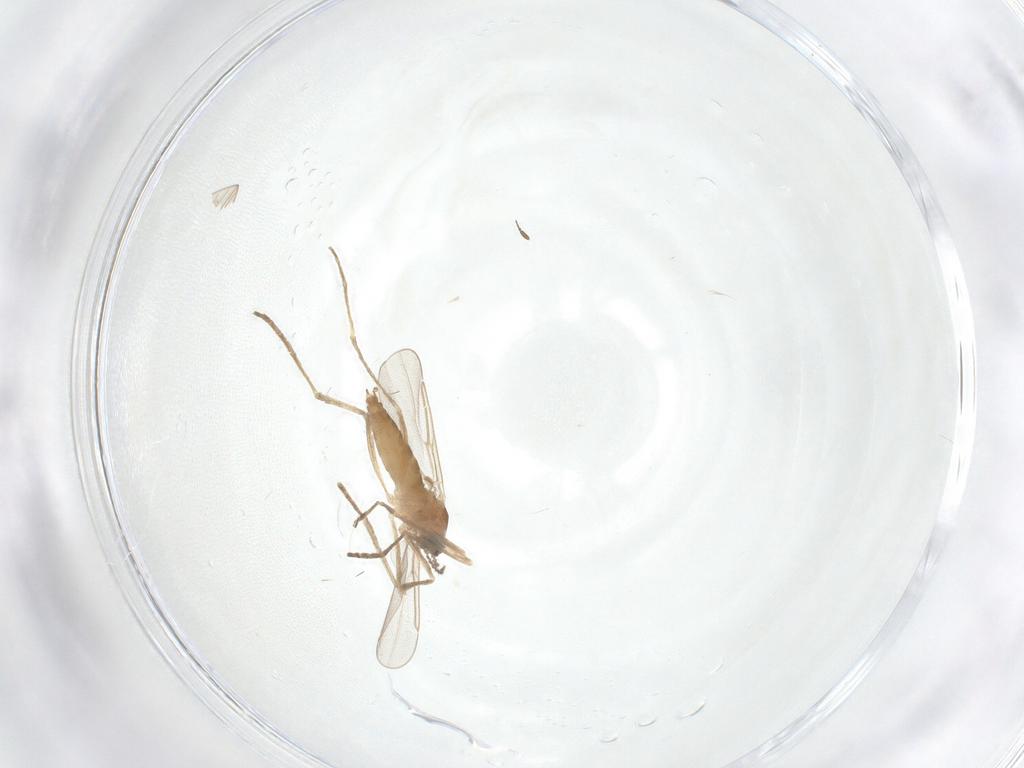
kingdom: Animalia
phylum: Arthropoda
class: Insecta
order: Diptera
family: Cecidomyiidae
